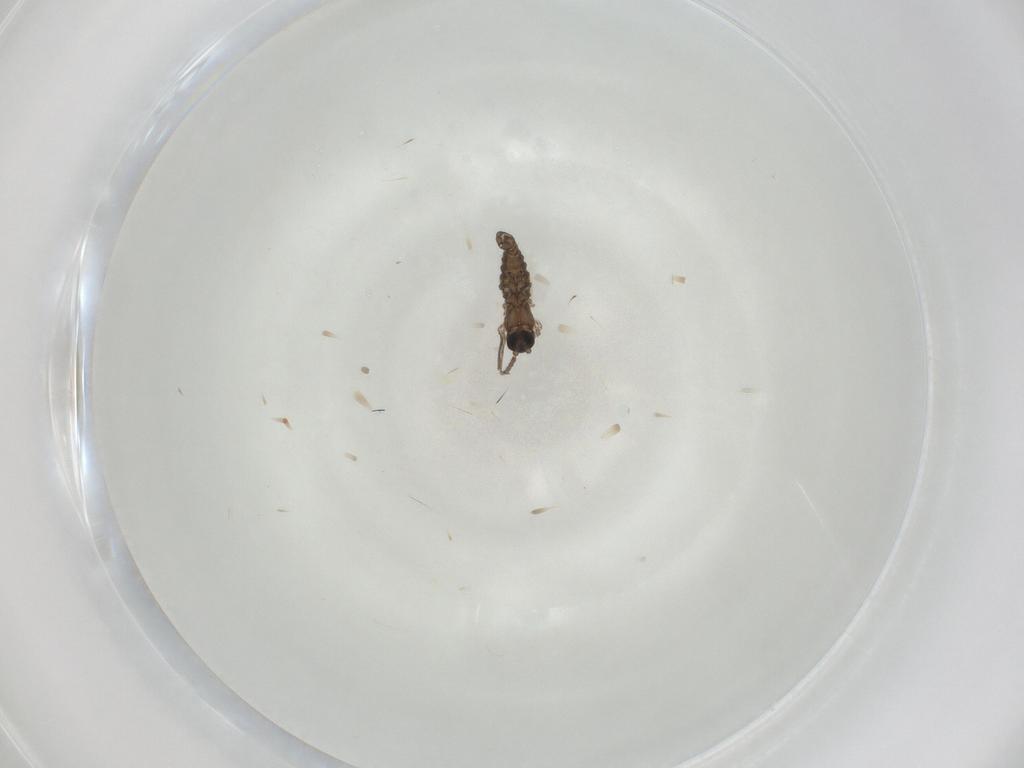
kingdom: Animalia
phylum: Arthropoda
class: Insecta
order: Diptera
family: Sciaridae
